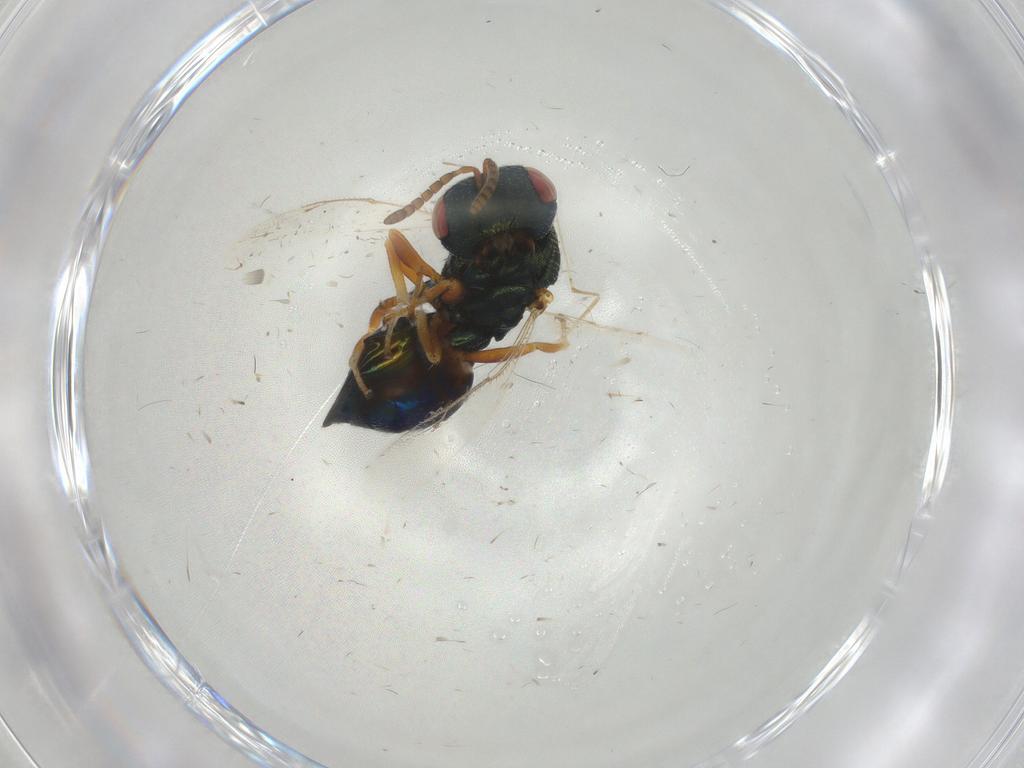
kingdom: Animalia
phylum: Arthropoda
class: Insecta
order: Hymenoptera
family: Pteromalidae
